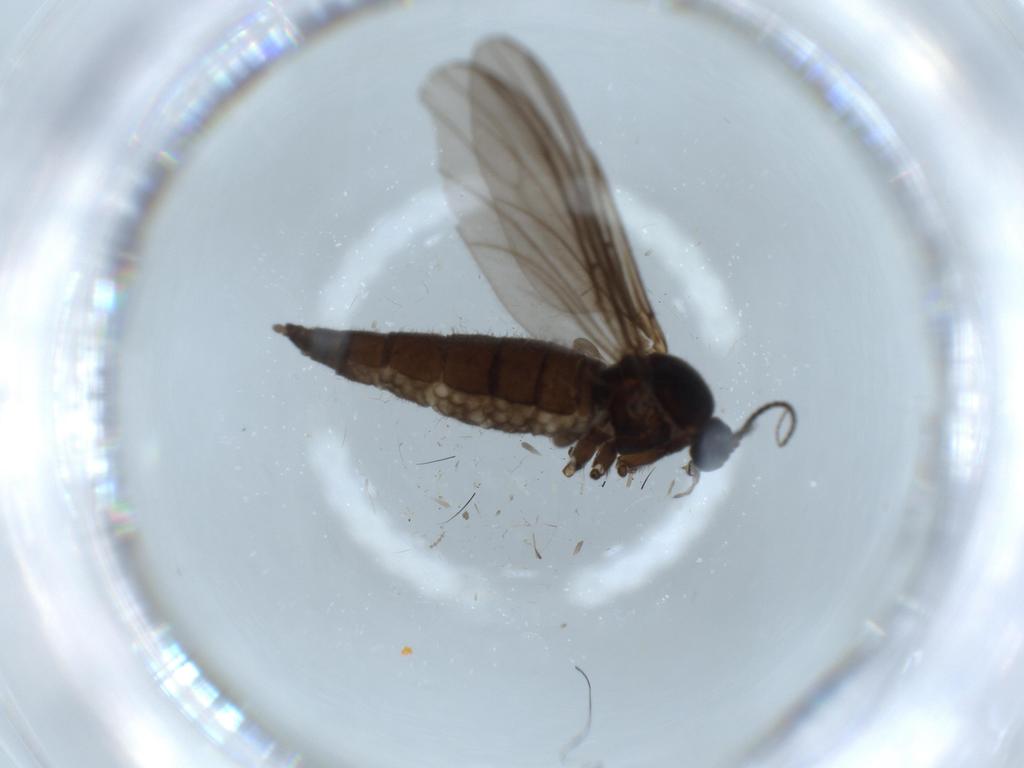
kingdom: Animalia
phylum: Arthropoda
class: Insecta
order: Diptera
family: Sciaridae
